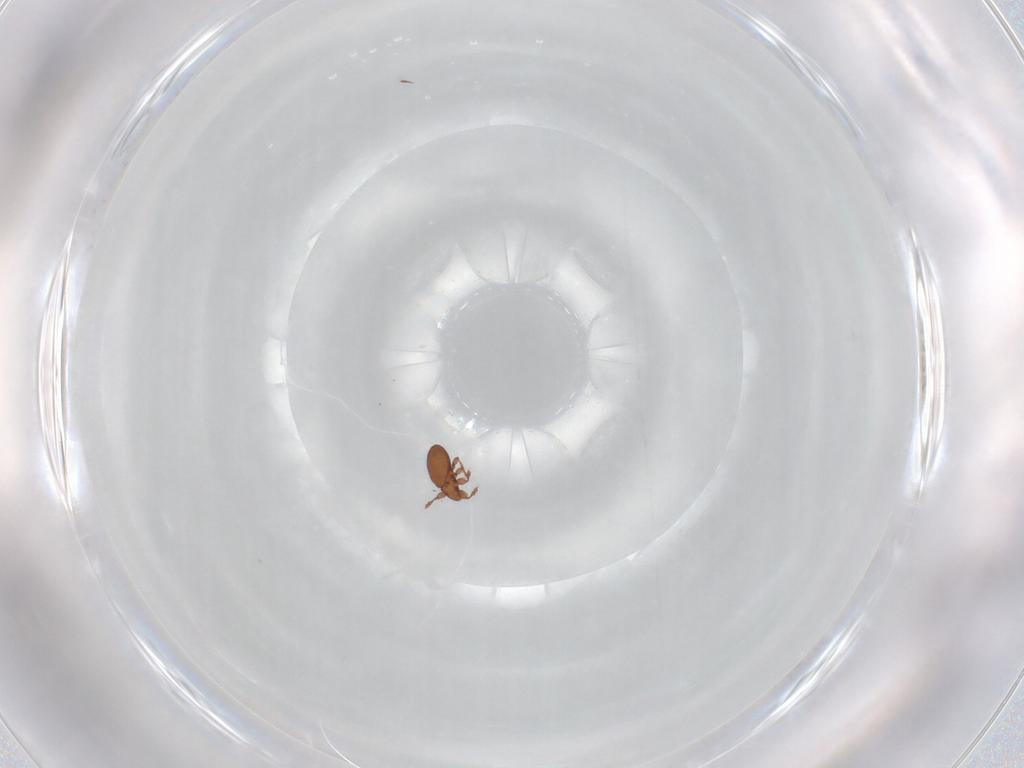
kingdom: Animalia
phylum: Arthropoda
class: Arachnida
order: Sarcoptiformes
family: Eremaeidae
